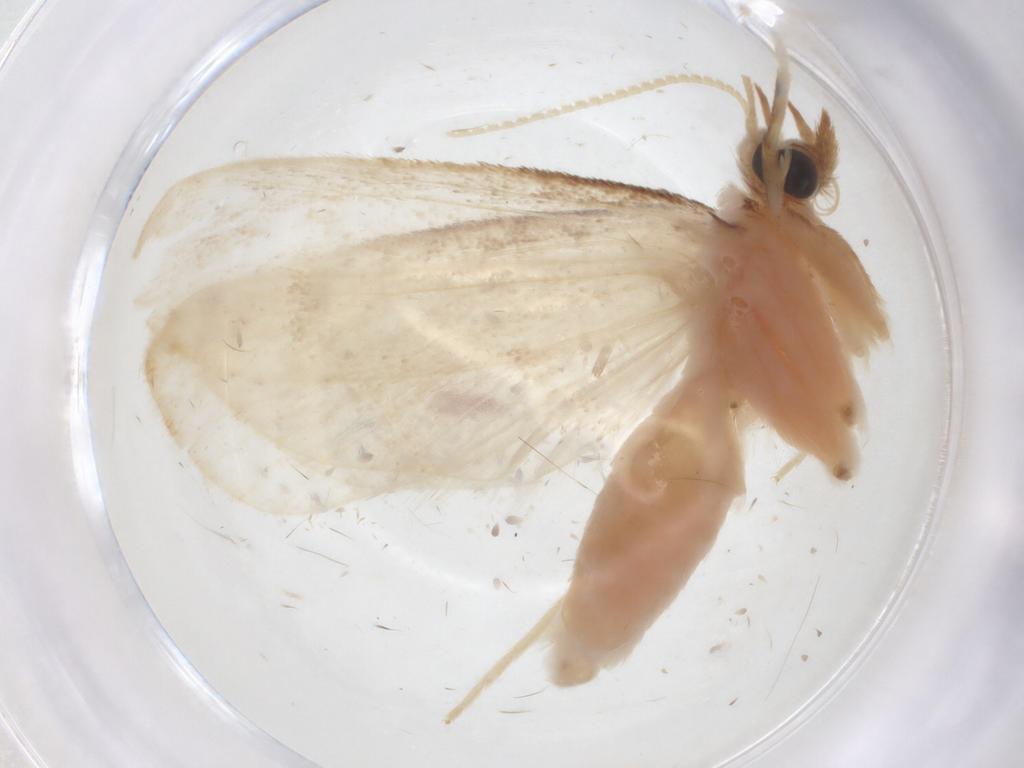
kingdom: Animalia
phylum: Arthropoda
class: Insecta
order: Lepidoptera
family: Crambidae
